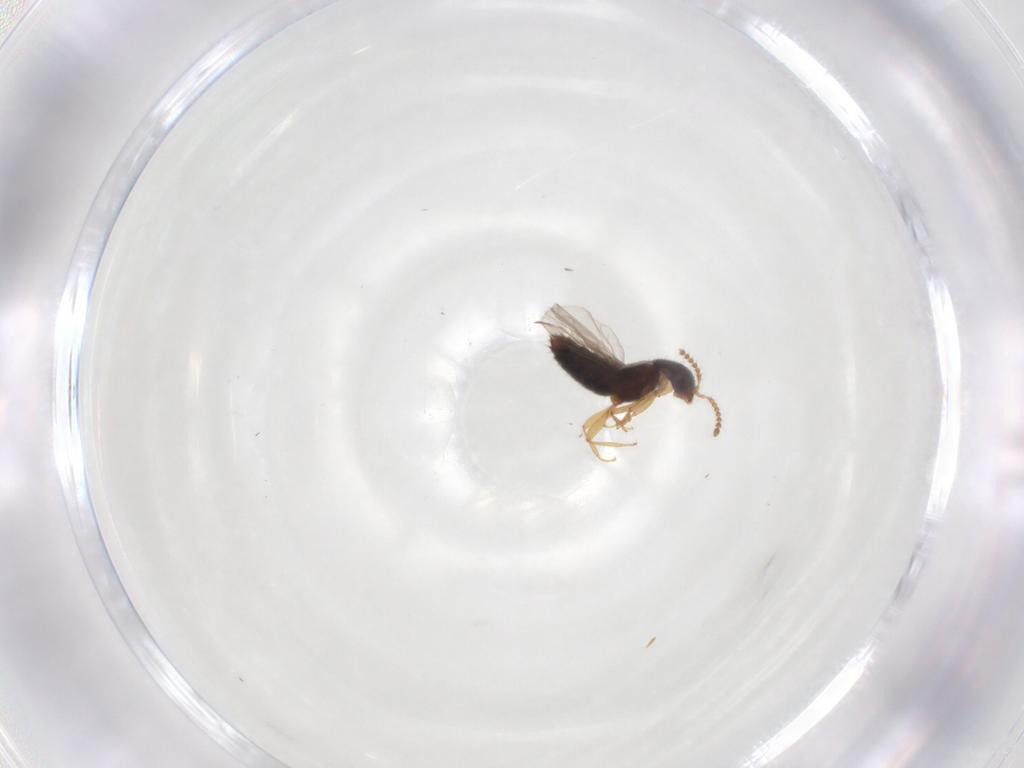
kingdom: Animalia
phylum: Arthropoda
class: Insecta
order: Coleoptera
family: Staphylinidae
